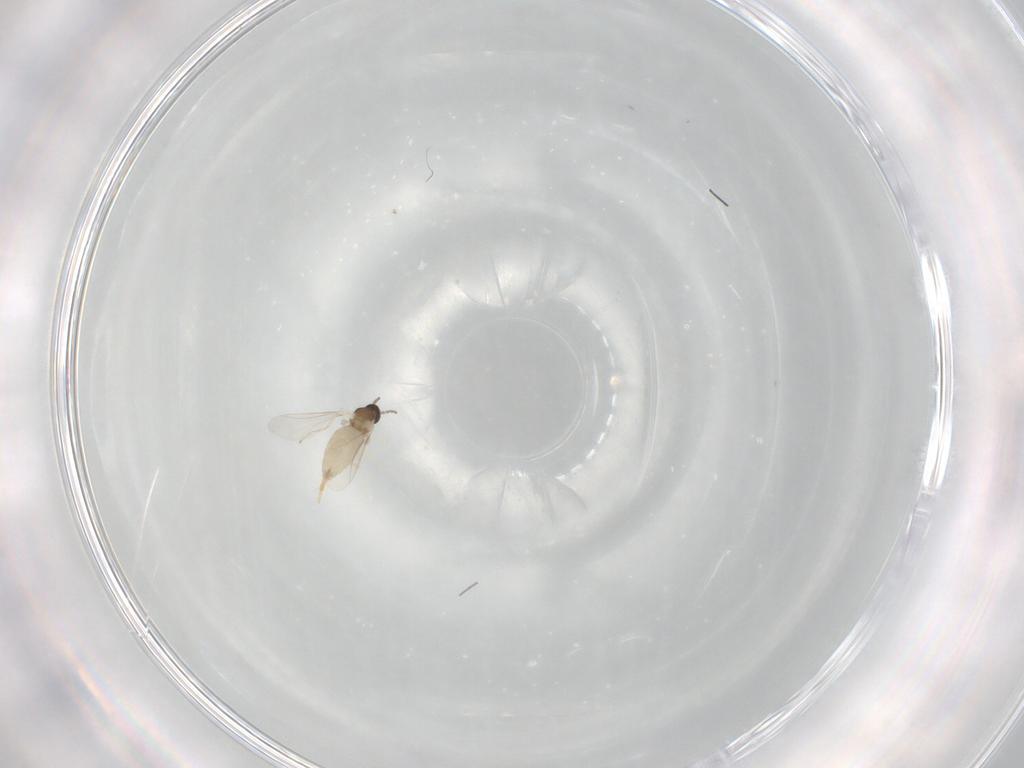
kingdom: Animalia
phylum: Arthropoda
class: Insecta
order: Diptera
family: Cecidomyiidae
